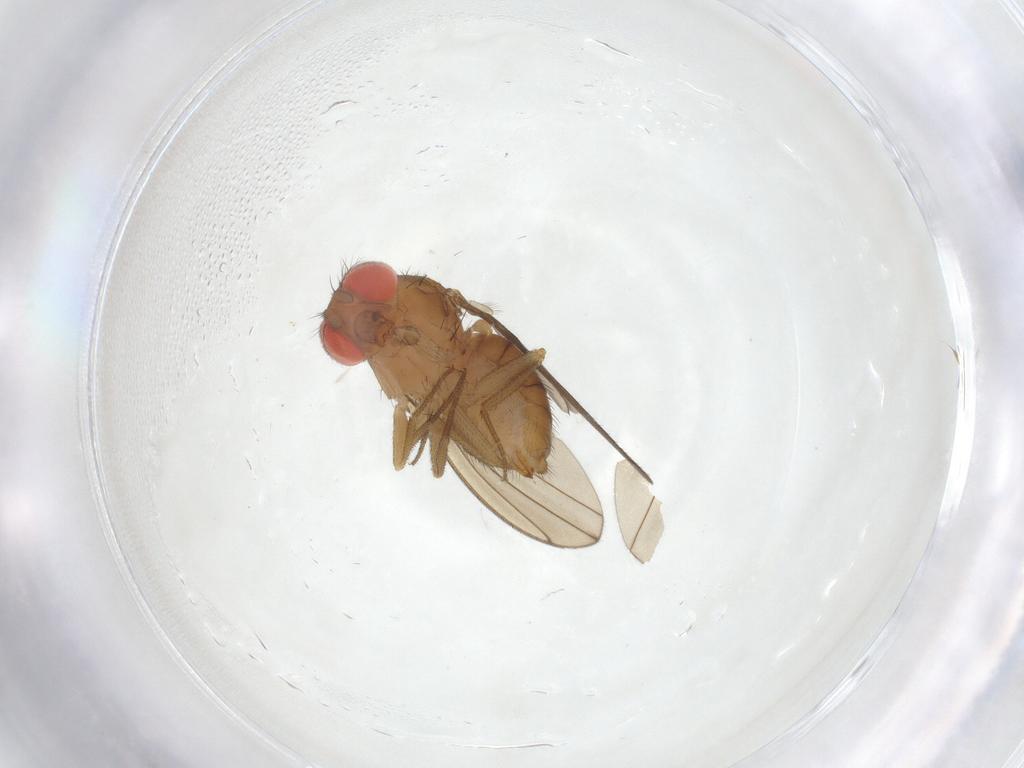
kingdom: Animalia
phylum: Arthropoda
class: Insecta
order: Diptera
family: Drosophilidae
